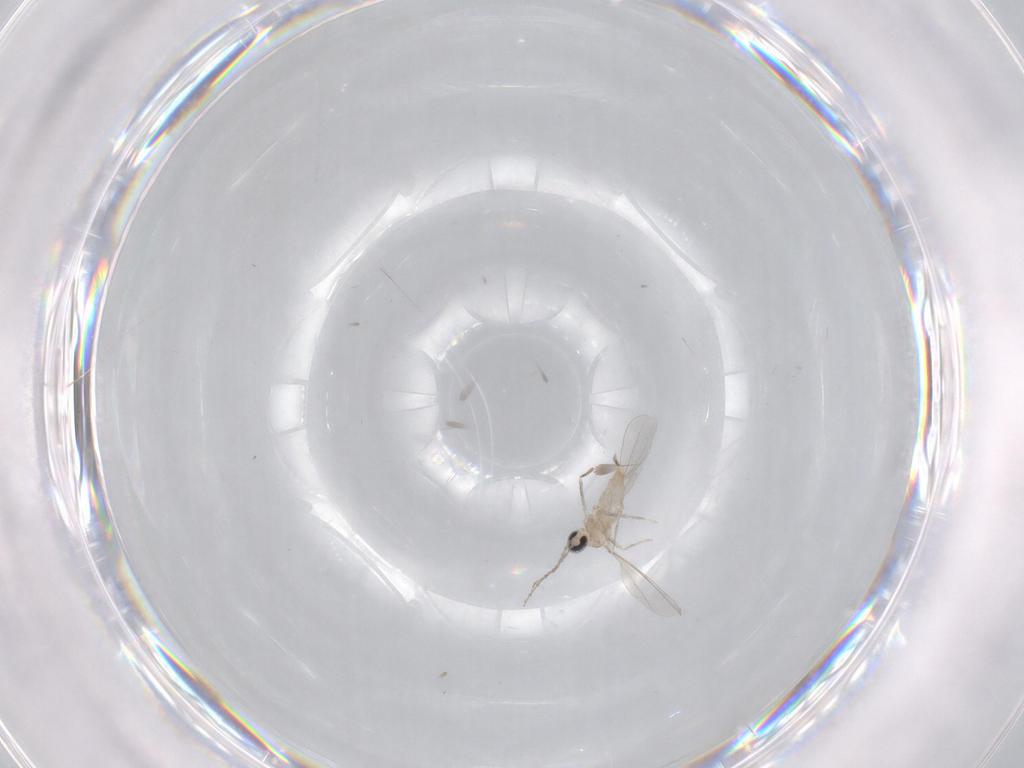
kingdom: Animalia
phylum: Arthropoda
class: Insecta
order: Diptera
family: Cecidomyiidae
